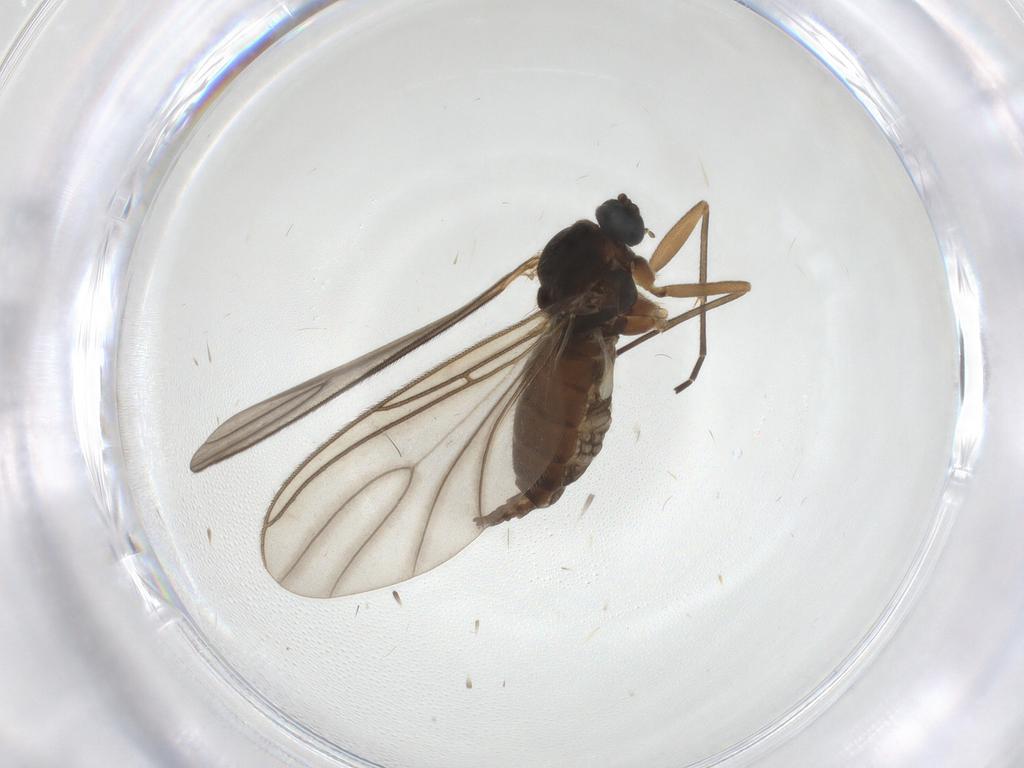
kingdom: Animalia
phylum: Arthropoda
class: Insecta
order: Diptera
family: Sciaridae
